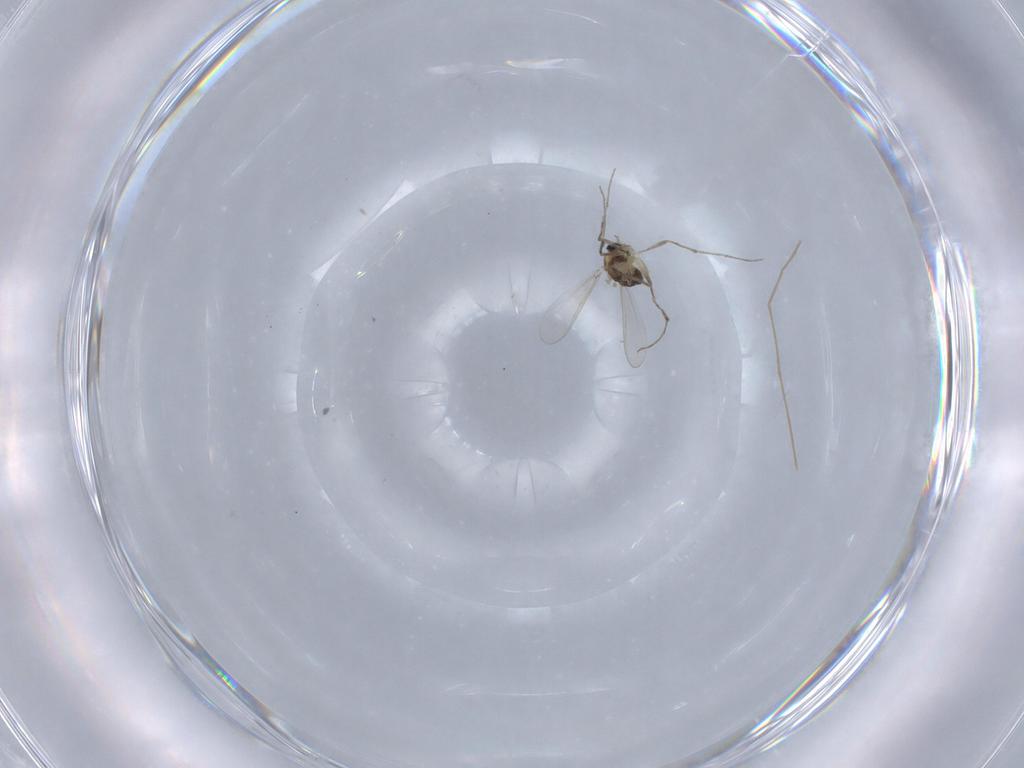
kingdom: Animalia
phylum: Arthropoda
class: Insecta
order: Diptera
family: Chironomidae
